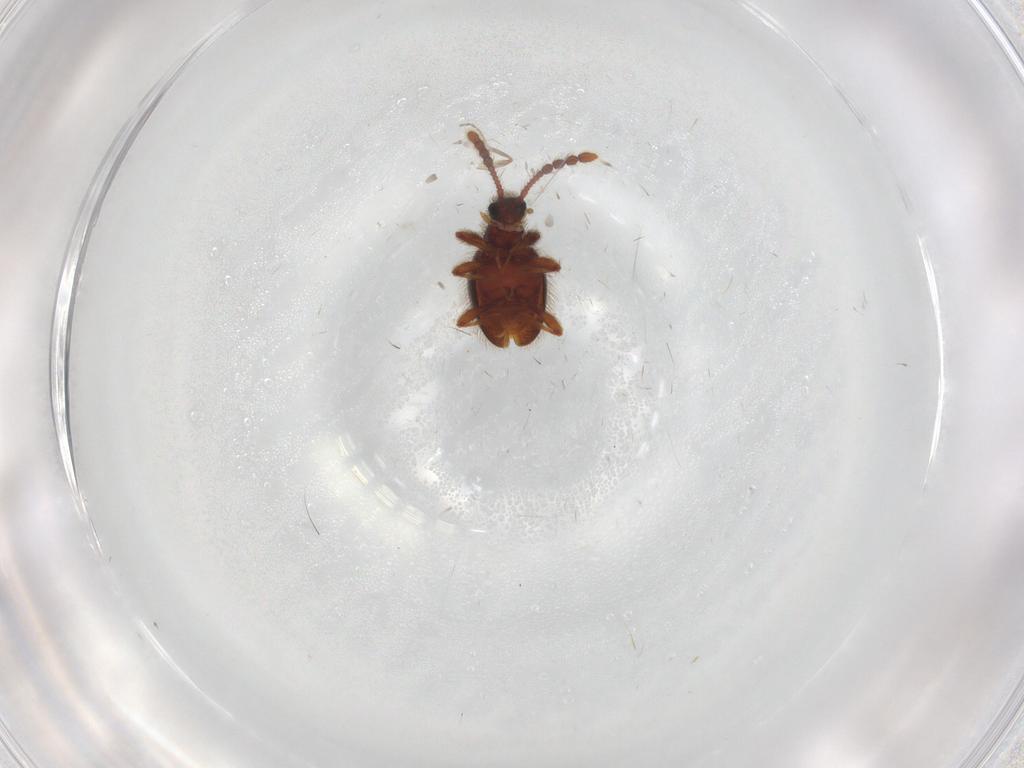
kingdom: Animalia
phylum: Arthropoda
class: Insecta
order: Coleoptera
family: Staphylinidae
